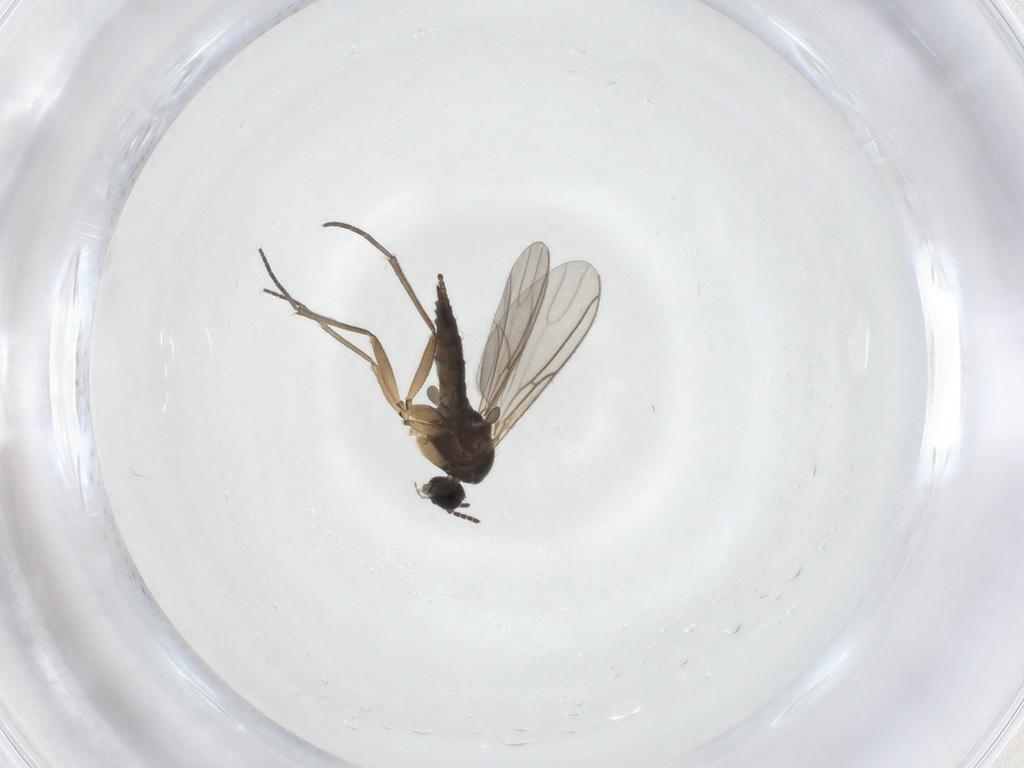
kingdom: Animalia
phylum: Arthropoda
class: Insecta
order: Diptera
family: Sciaridae
